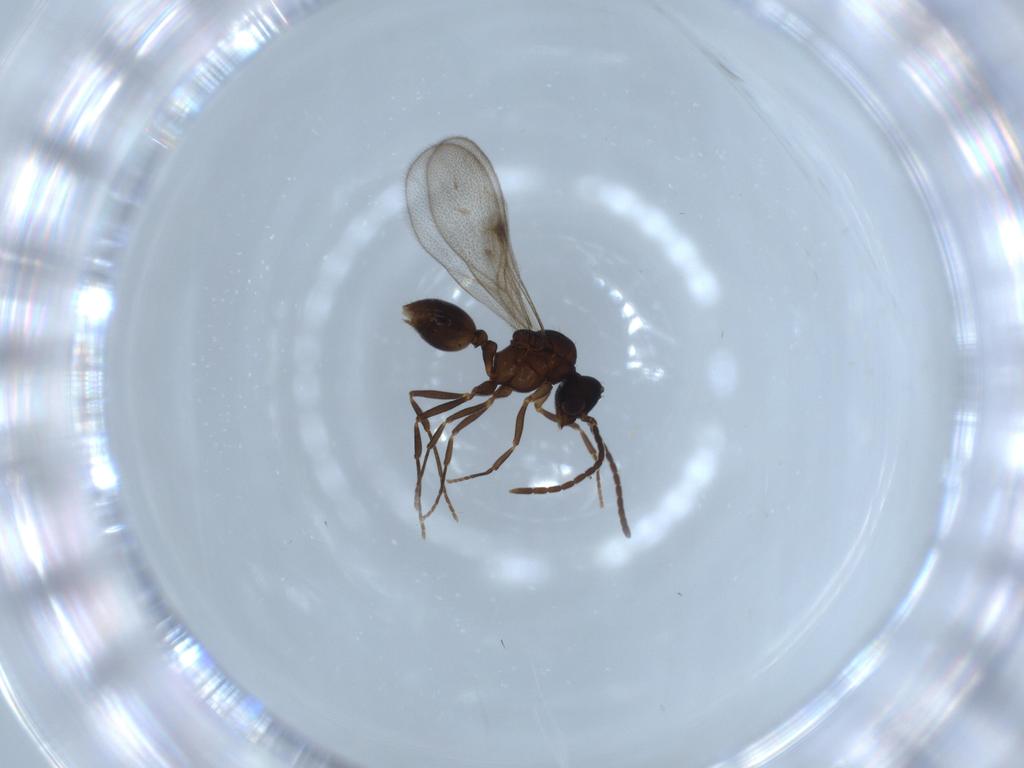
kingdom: Animalia
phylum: Arthropoda
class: Insecta
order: Hymenoptera
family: Formicidae
